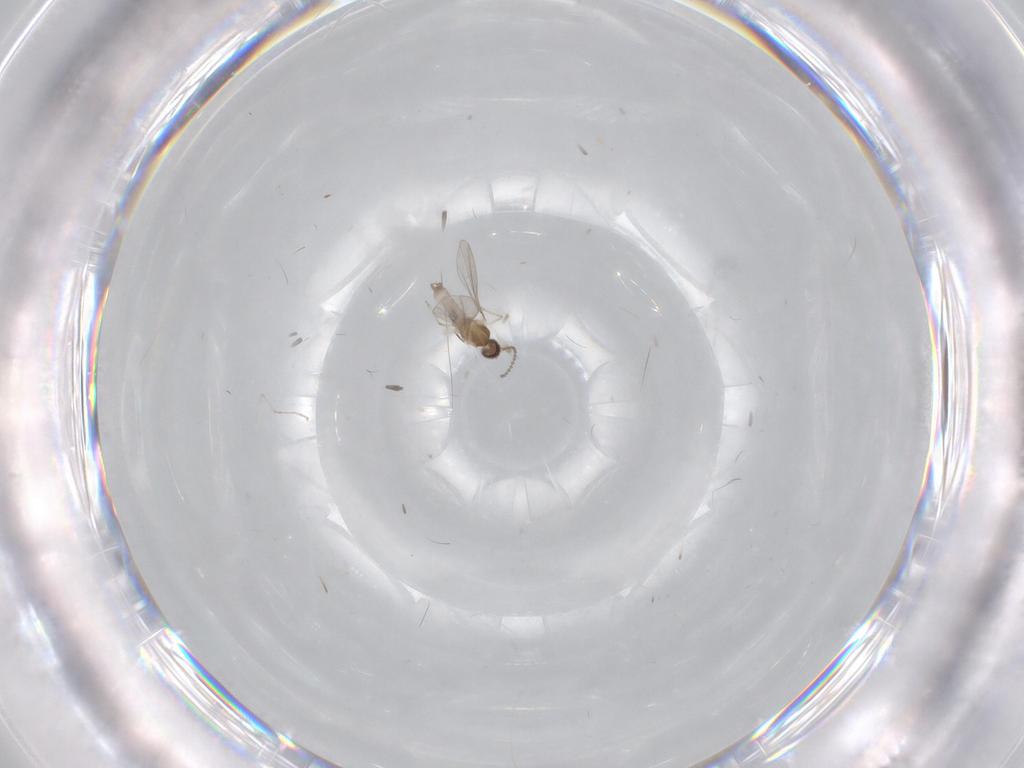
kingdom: Animalia
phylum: Arthropoda
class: Insecta
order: Diptera
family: Cecidomyiidae
